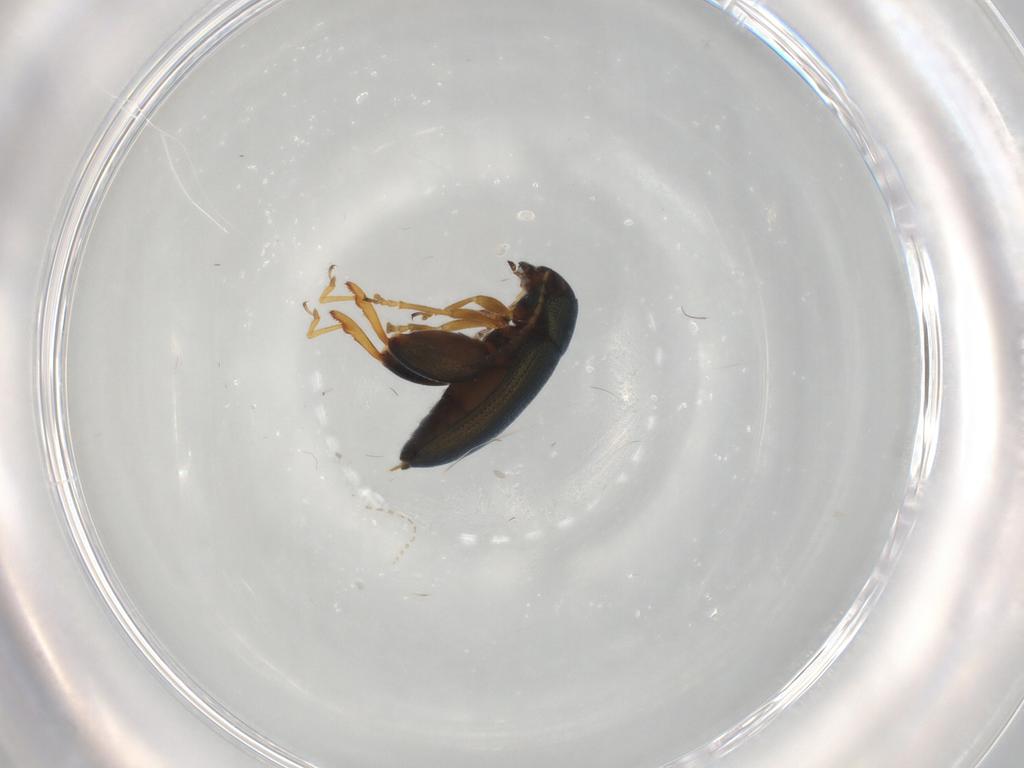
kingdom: Animalia
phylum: Arthropoda
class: Insecta
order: Coleoptera
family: Chrysomelidae
